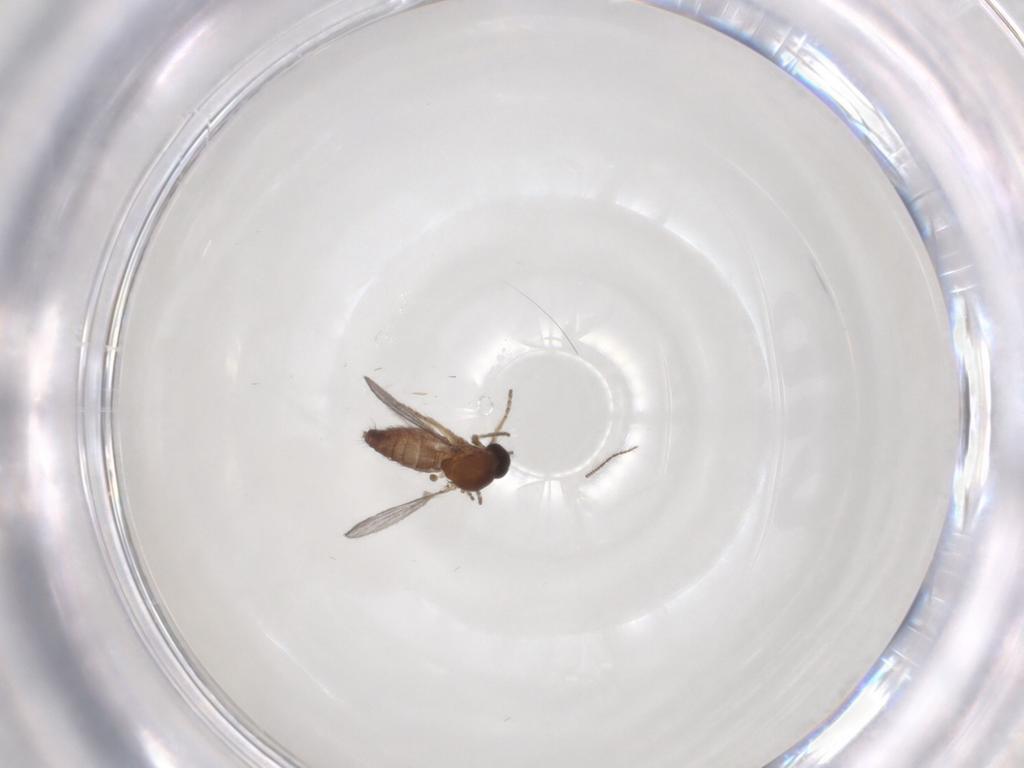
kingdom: Animalia
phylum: Arthropoda
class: Insecta
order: Diptera
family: Ceratopogonidae
